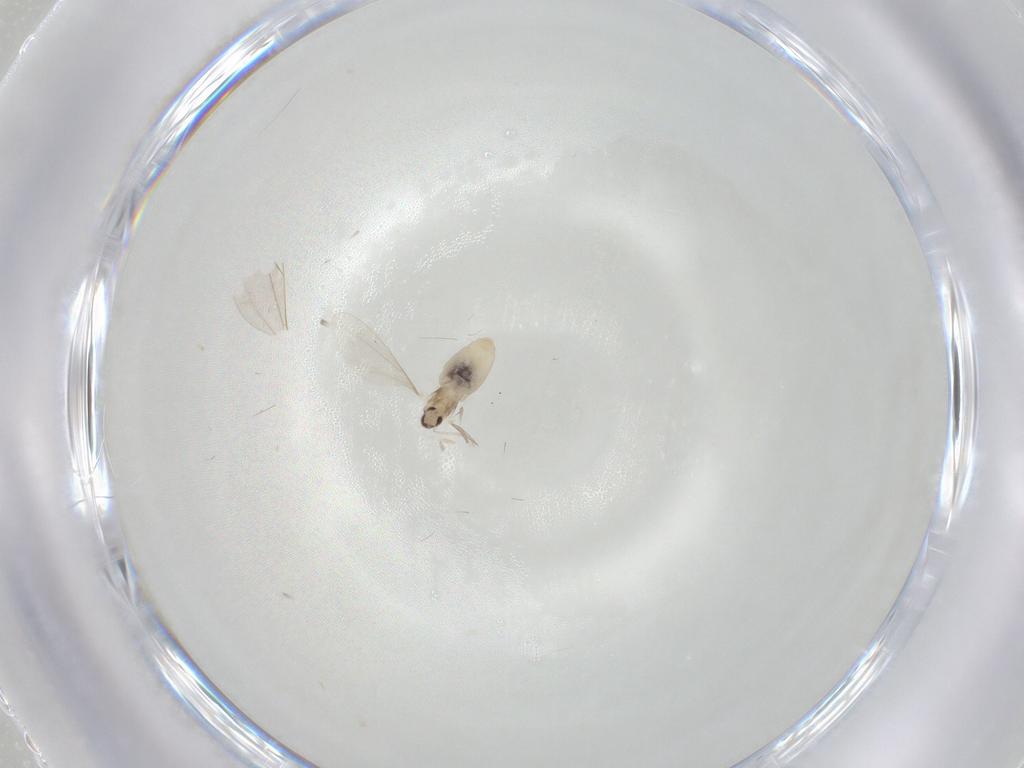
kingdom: Animalia
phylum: Arthropoda
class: Insecta
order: Diptera
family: Cecidomyiidae
